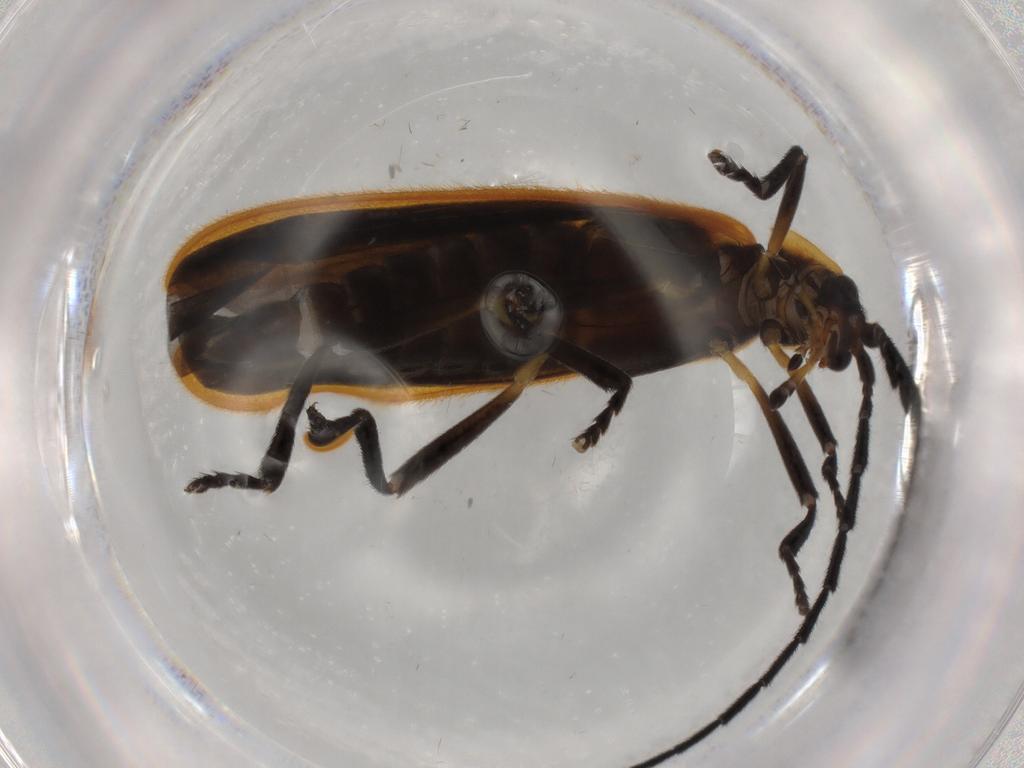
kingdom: Animalia
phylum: Arthropoda
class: Insecta
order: Coleoptera
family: Lycidae
